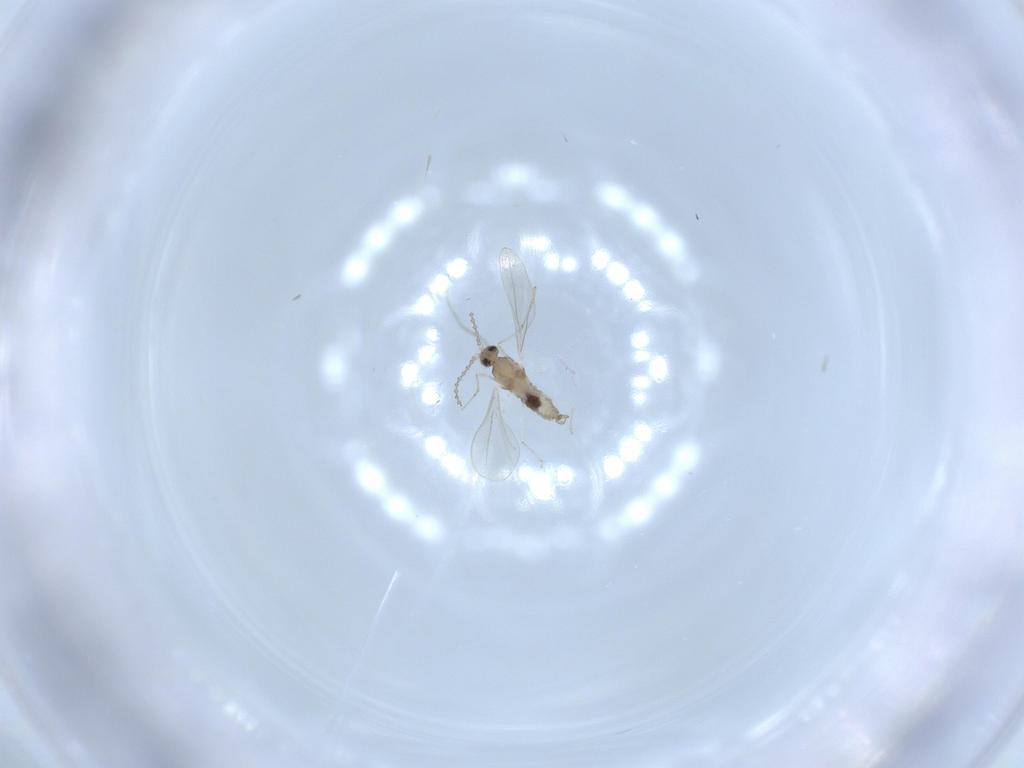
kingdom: Animalia
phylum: Arthropoda
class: Insecta
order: Diptera
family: Cecidomyiidae
